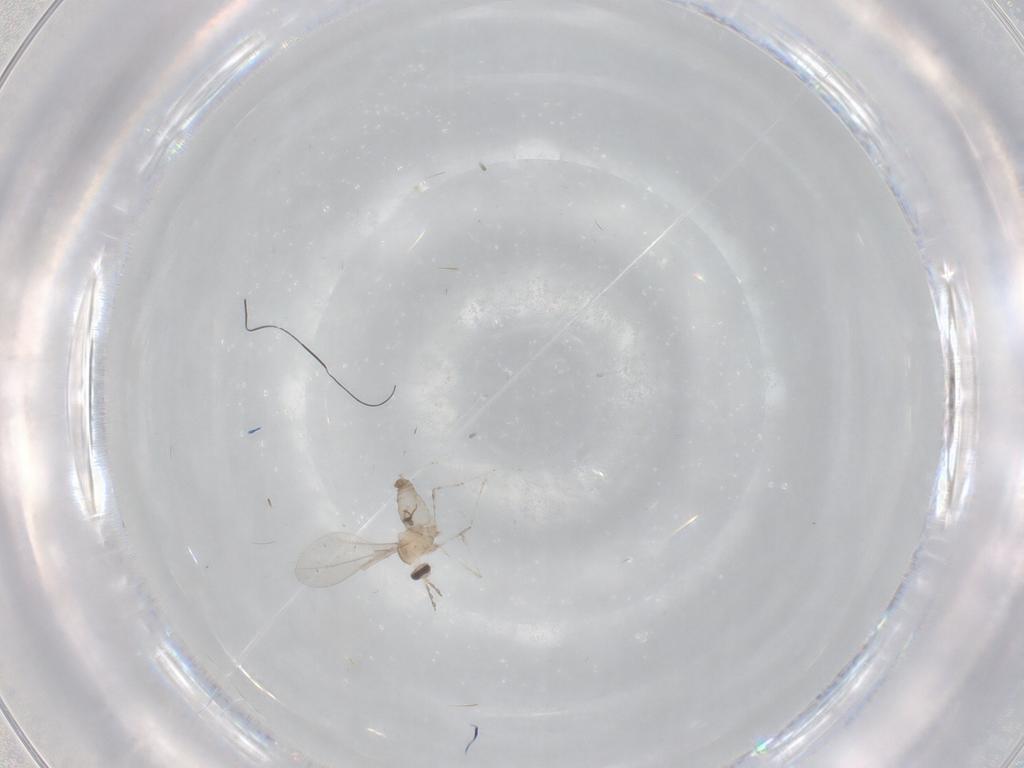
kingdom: Animalia
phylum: Arthropoda
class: Insecta
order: Diptera
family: Cecidomyiidae
